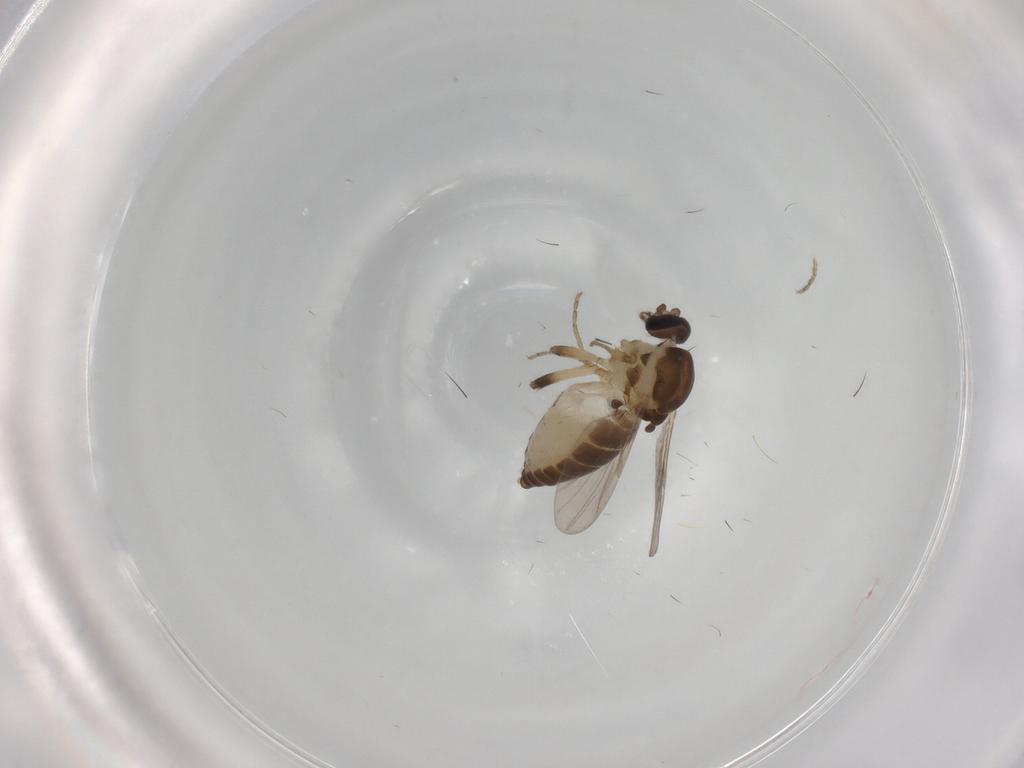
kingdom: Animalia
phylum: Arthropoda
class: Insecta
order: Diptera
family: Ceratopogonidae
